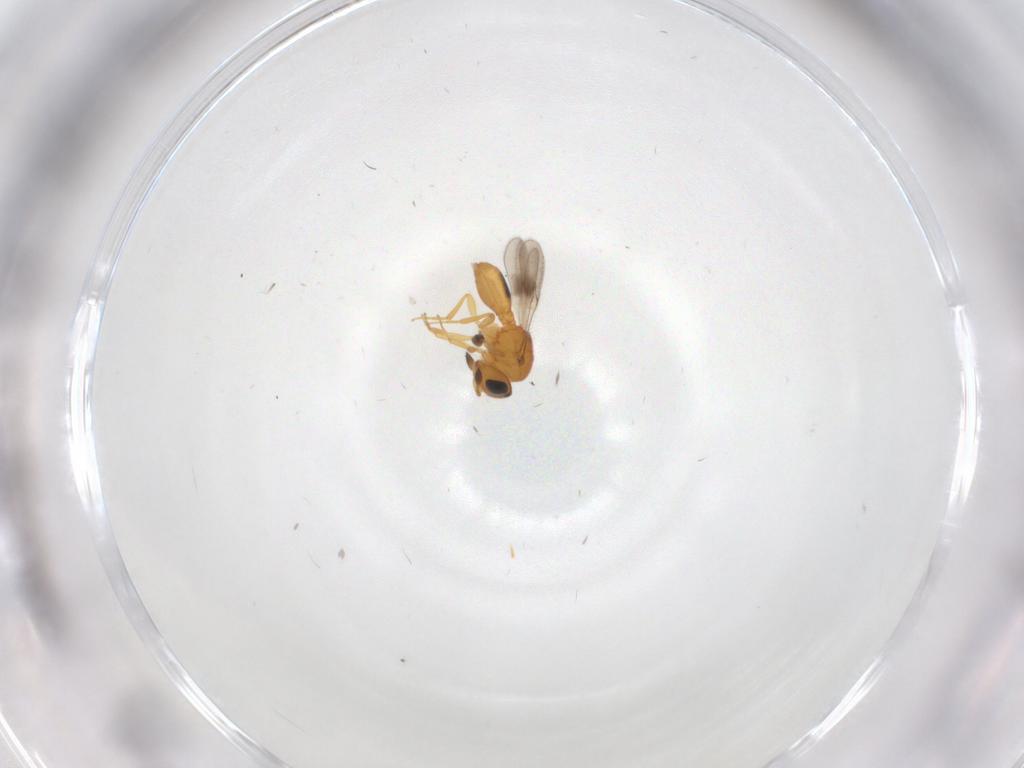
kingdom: Animalia
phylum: Arthropoda
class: Insecta
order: Hymenoptera
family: Scelionidae
